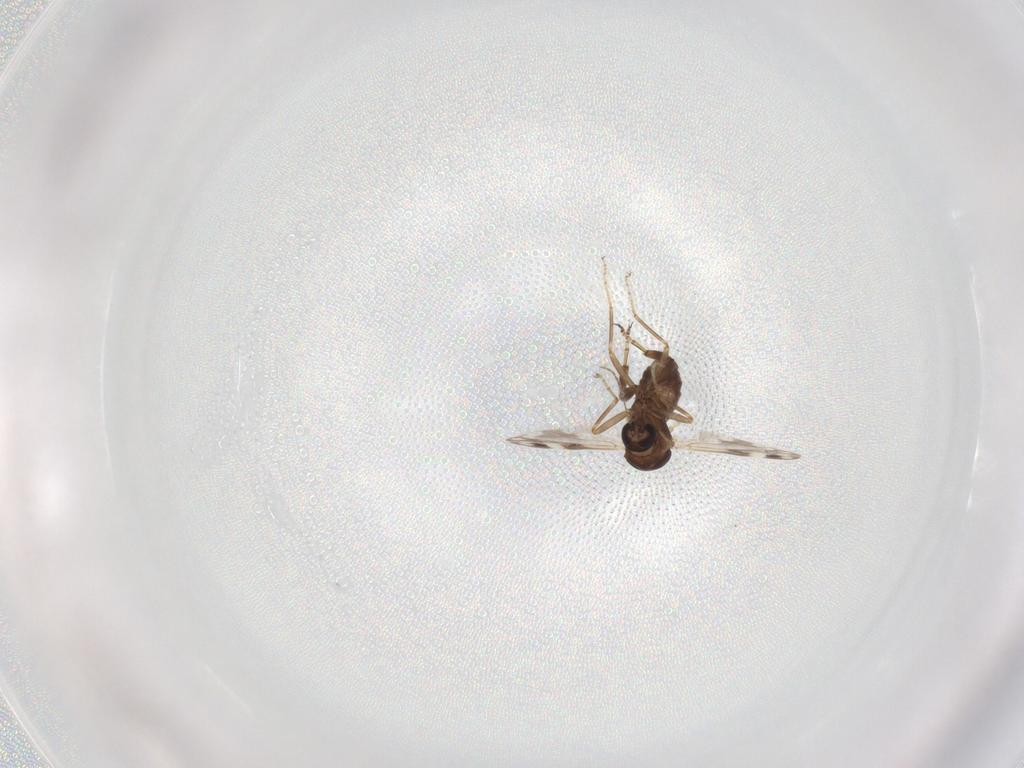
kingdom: Animalia
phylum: Arthropoda
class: Insecta
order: Diptera
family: Ceratopogonidae
